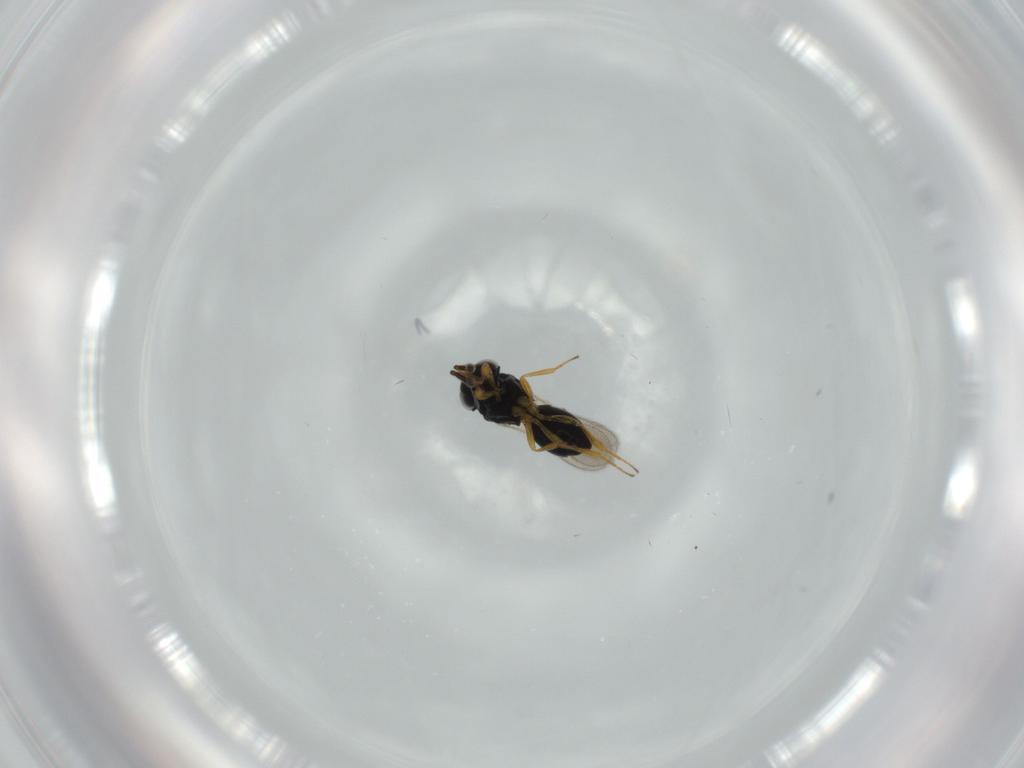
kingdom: Animalia
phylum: Arthropoda
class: Insecta
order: Hymenoptera
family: Scelionidae
